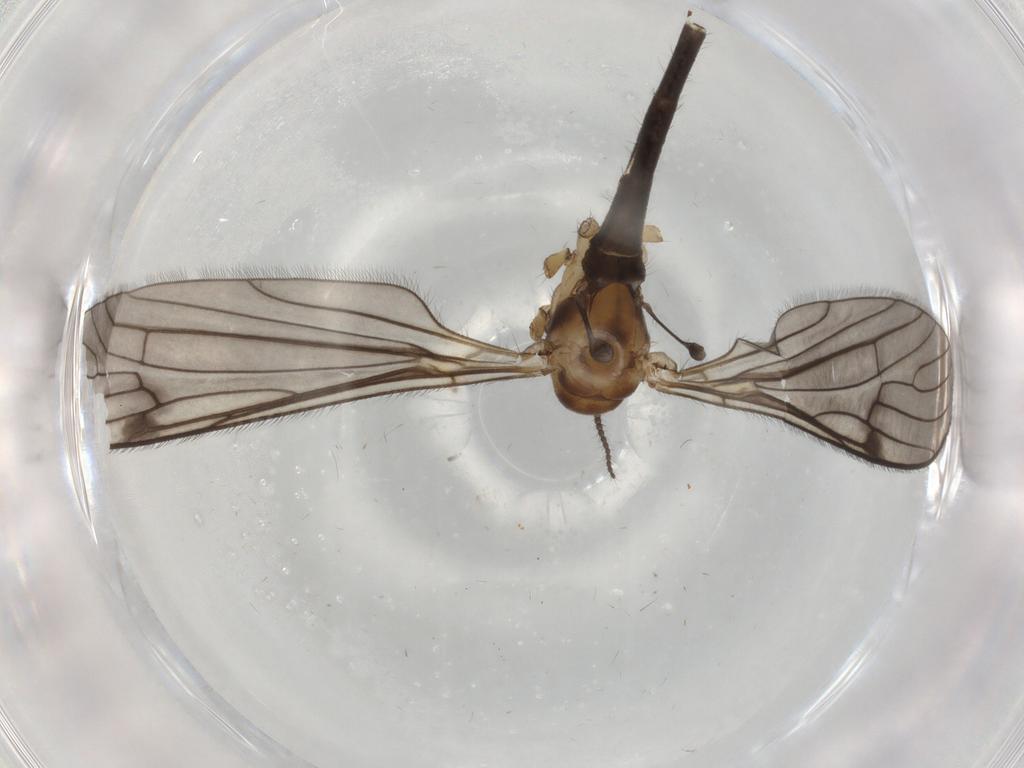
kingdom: Animalia
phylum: Arthropoda
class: Insecta
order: Diptera
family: Limoniidae
